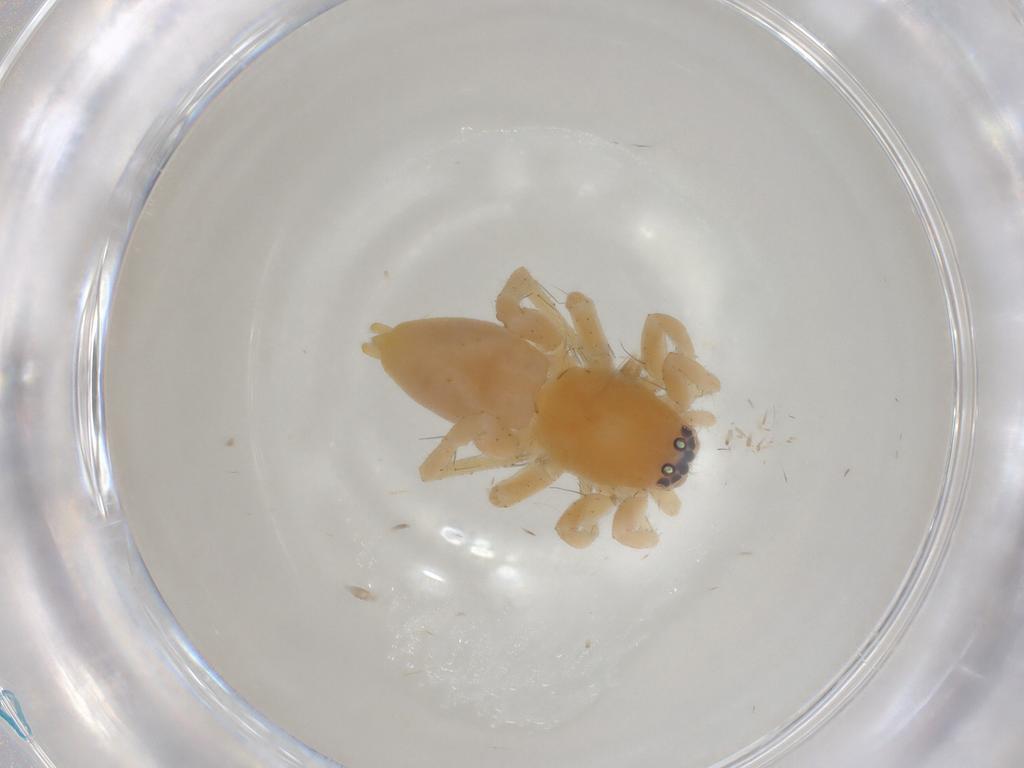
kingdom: Animalia
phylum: Arthropoda
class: Arachnida
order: Araneae
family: Clubionidae
